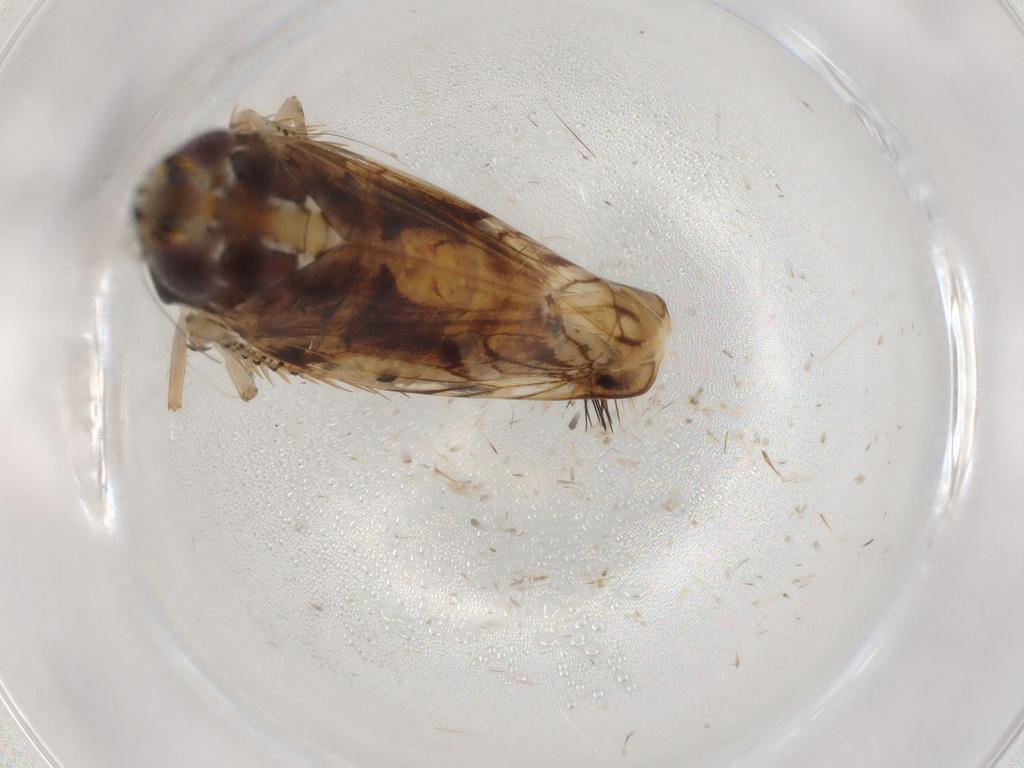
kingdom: Animalia
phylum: Arthropoda
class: Insecta
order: Hemiptera
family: Cicadellidae
